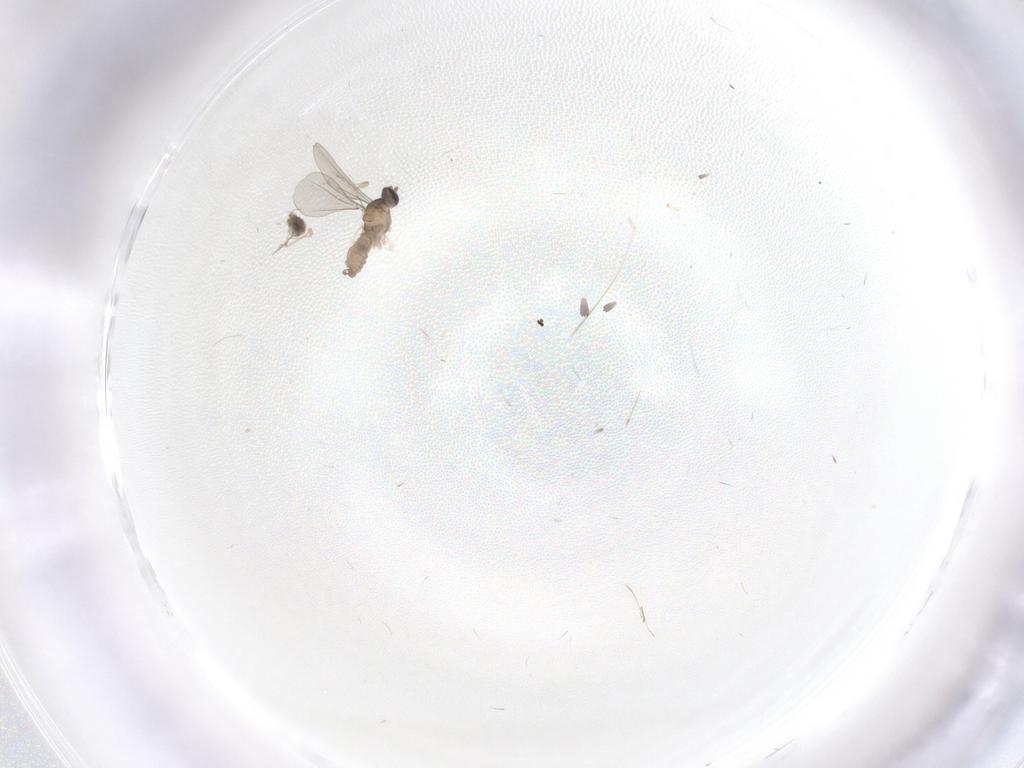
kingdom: Animalia
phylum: Arthropoda
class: Insecta
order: Diptera
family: Cecidomyiidae
